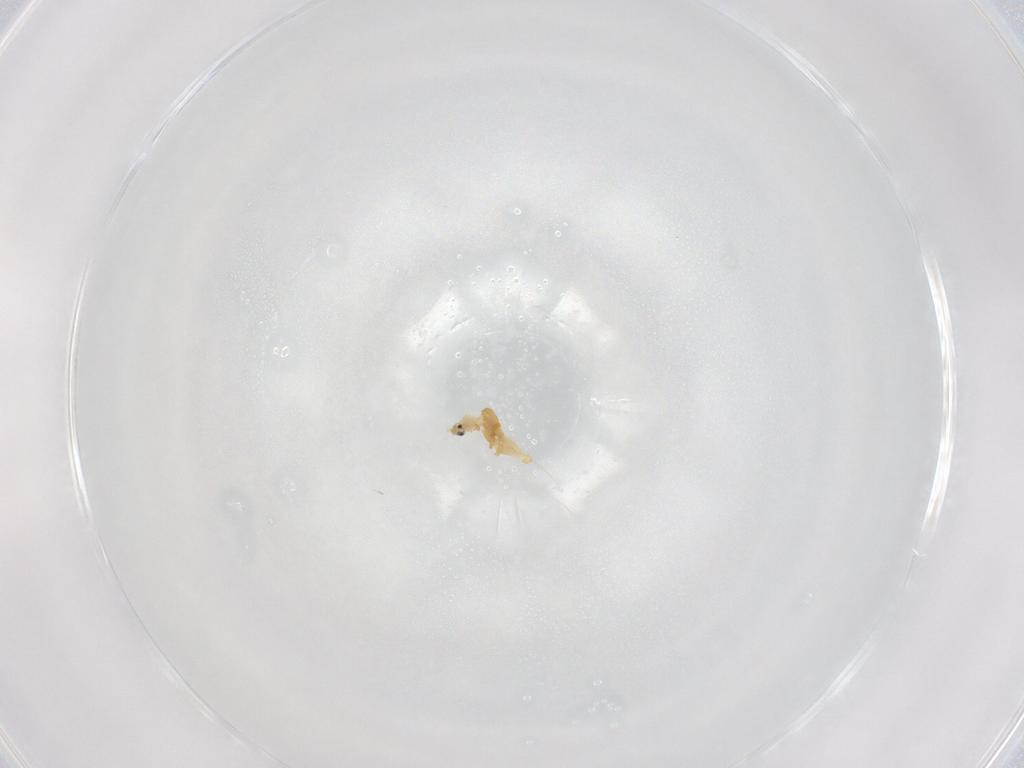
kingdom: Animalia
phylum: Arthropoda
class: Insecta
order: Hemiptera
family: Diaspididae
